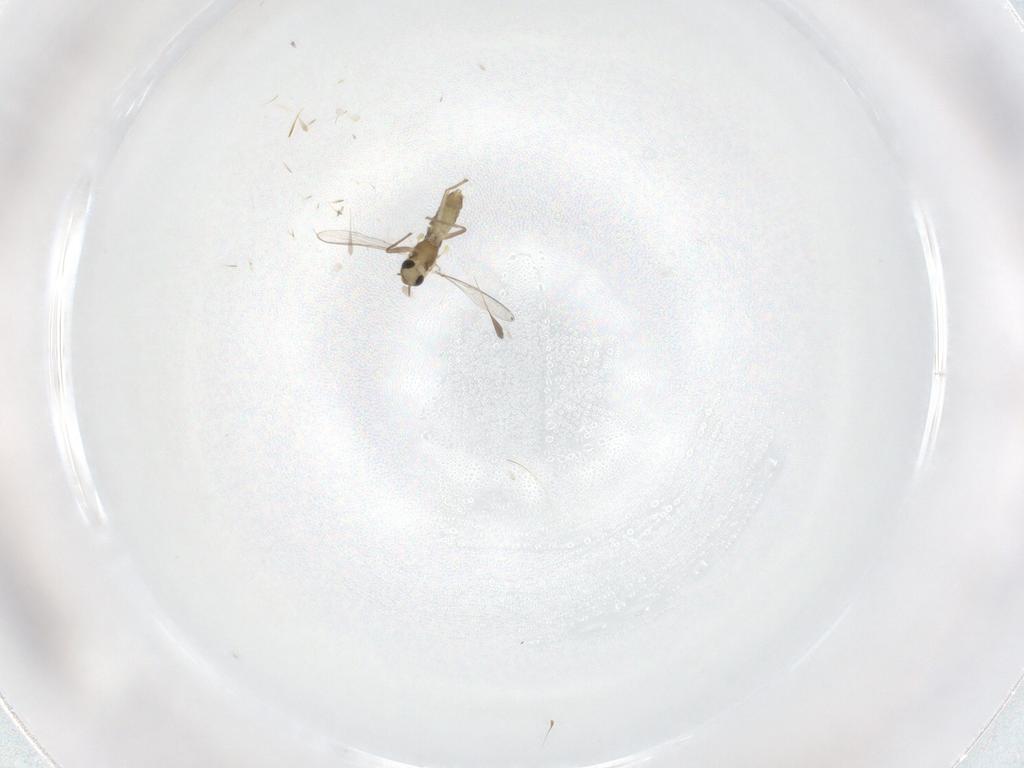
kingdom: Animalia
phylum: Arthropoda
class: Insecta
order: Diptera
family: Chironomidae
